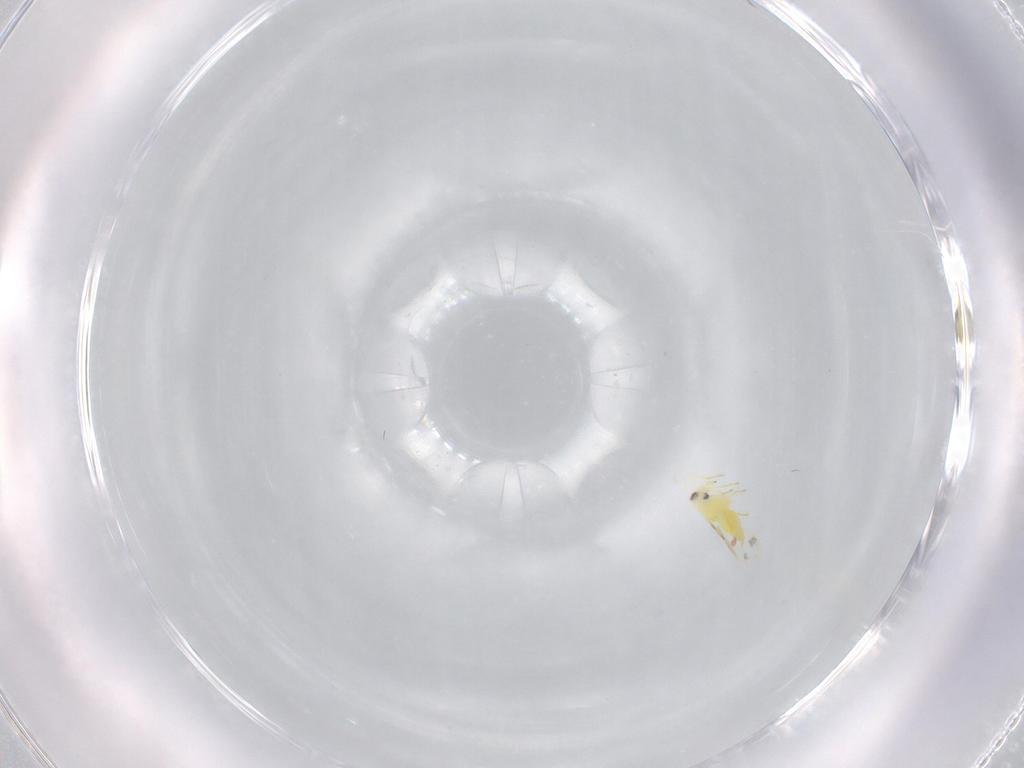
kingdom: Animalia
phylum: Arthropoda
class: Insecta
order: Hemiptera
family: Aleyrodidae
